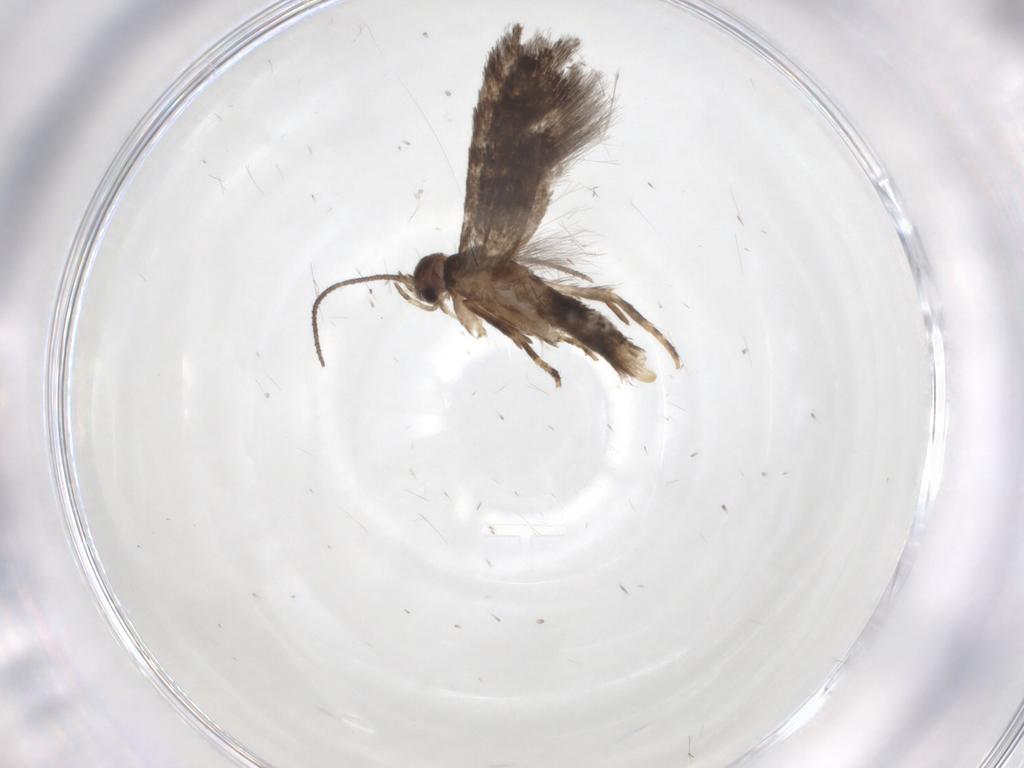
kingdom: Animalia
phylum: Arthropoda
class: Insecta
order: Lepidoptera
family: Elachistidae
